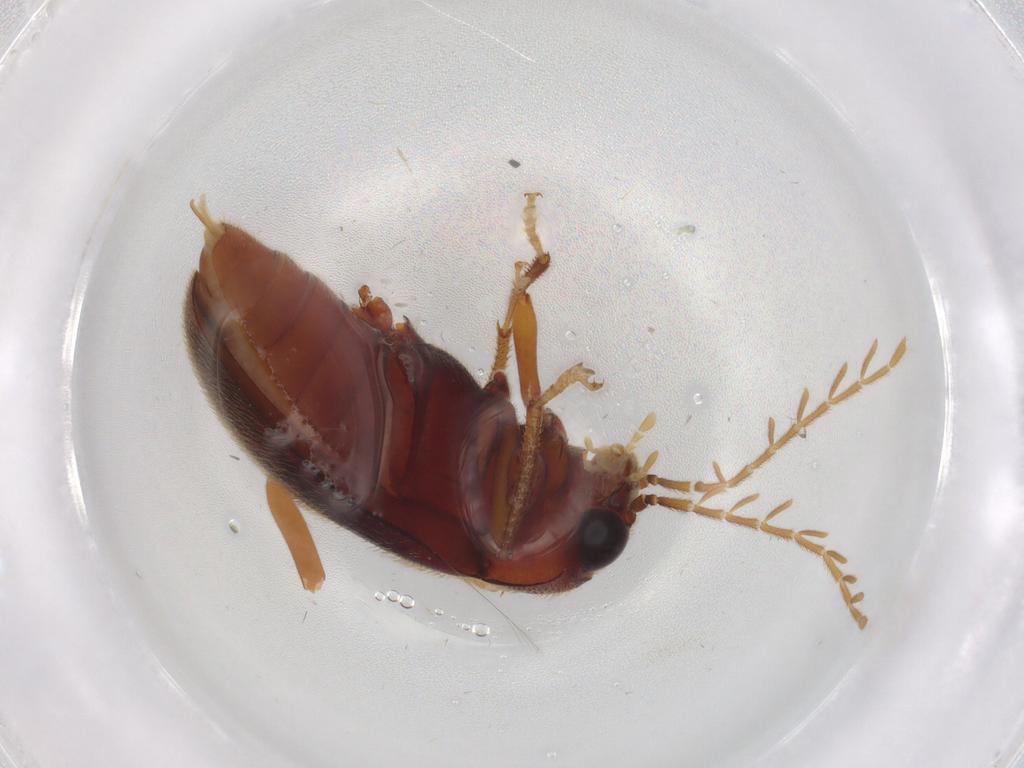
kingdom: Animalia
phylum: Arthropoda
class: Insecta
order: Coleoptera
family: Ptilodactylidae
